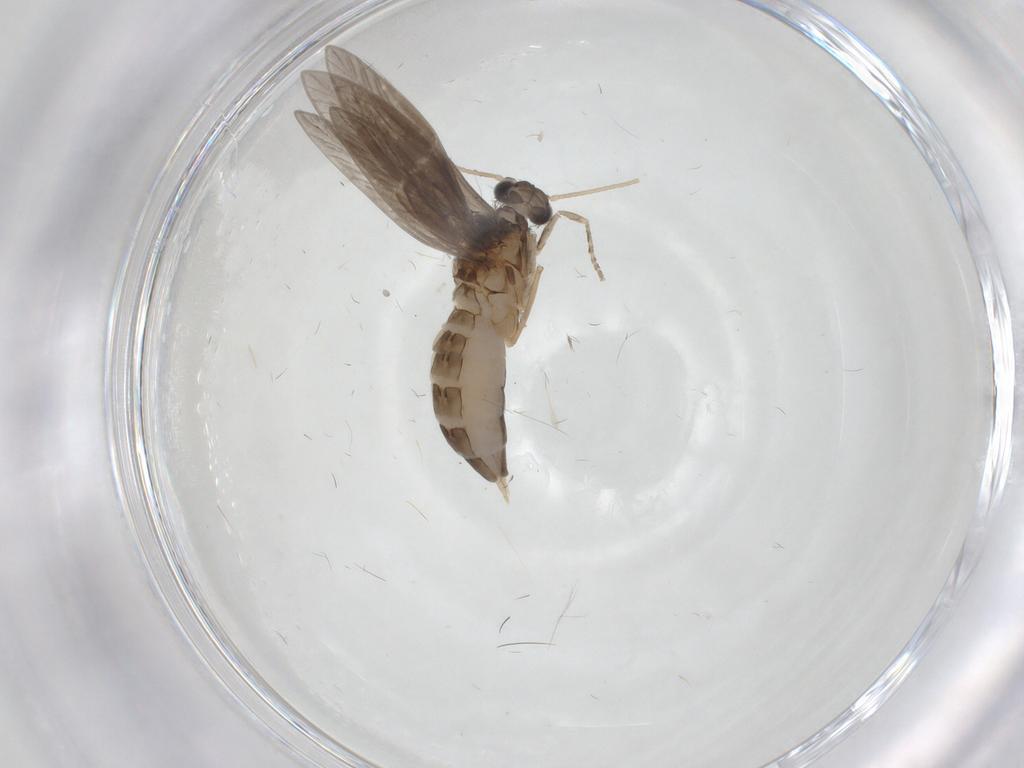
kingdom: Animalia
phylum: Arthropoda
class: Insecta
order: Trichoptera
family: Hydroptilidae
